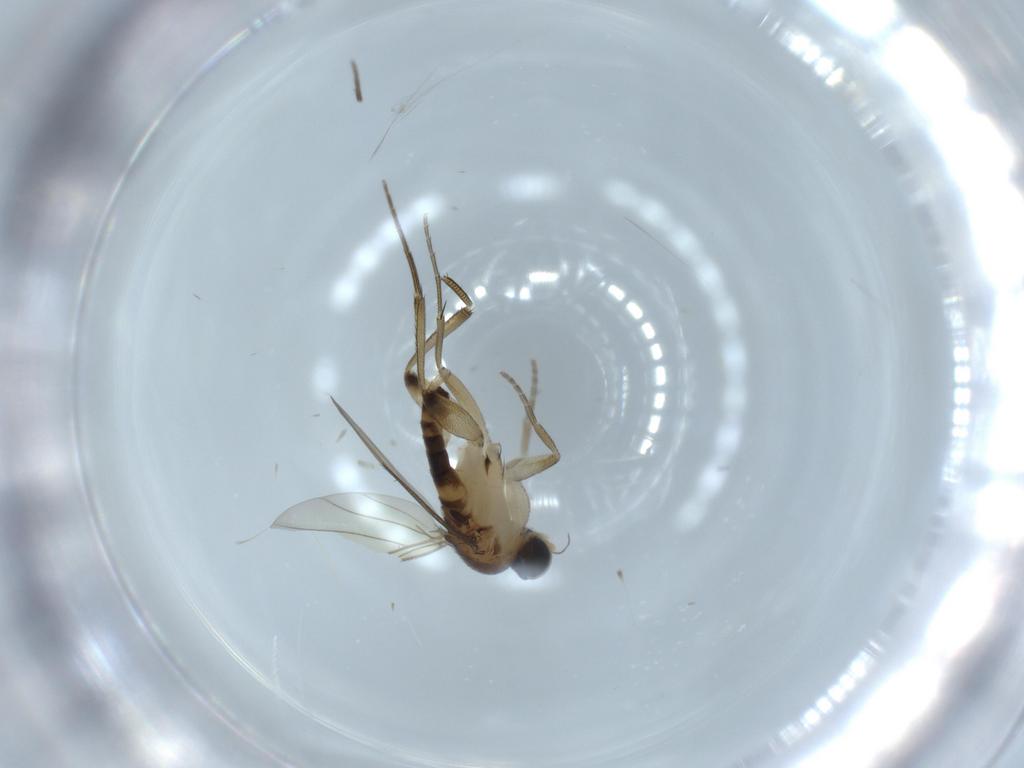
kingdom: Animalia
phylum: Arthropoda
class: Insecta
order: Diptera
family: Phoridae
